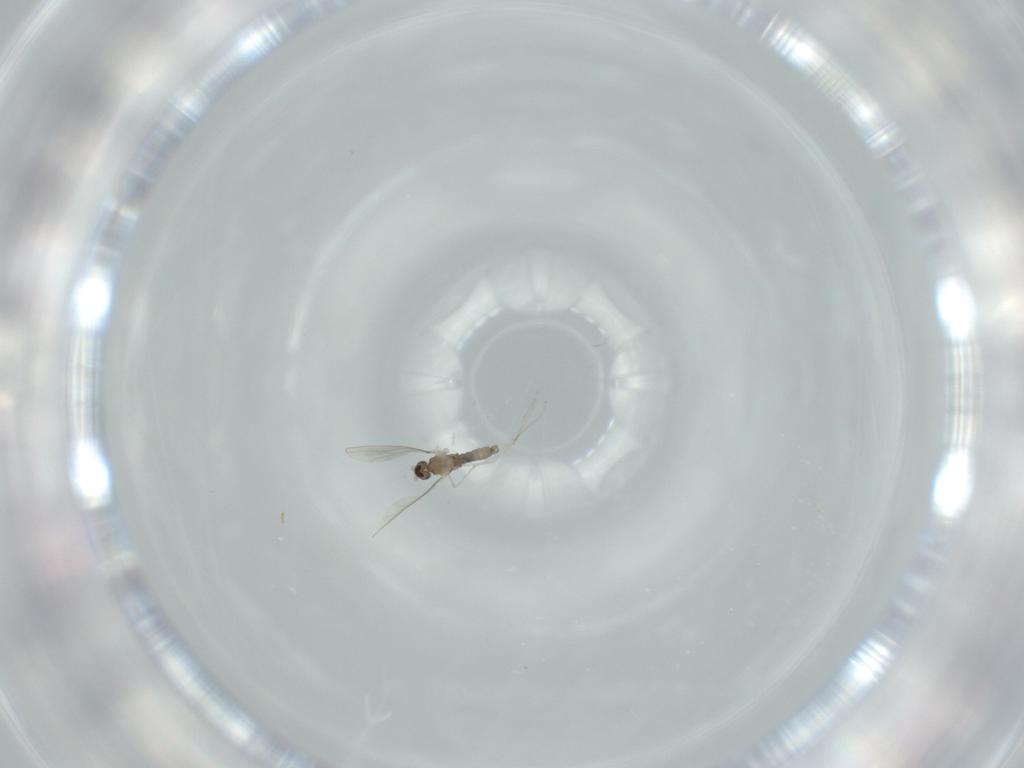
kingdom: Animalia
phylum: Arthropoda
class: Insecta
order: Diptera
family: Cecidomyiidae
